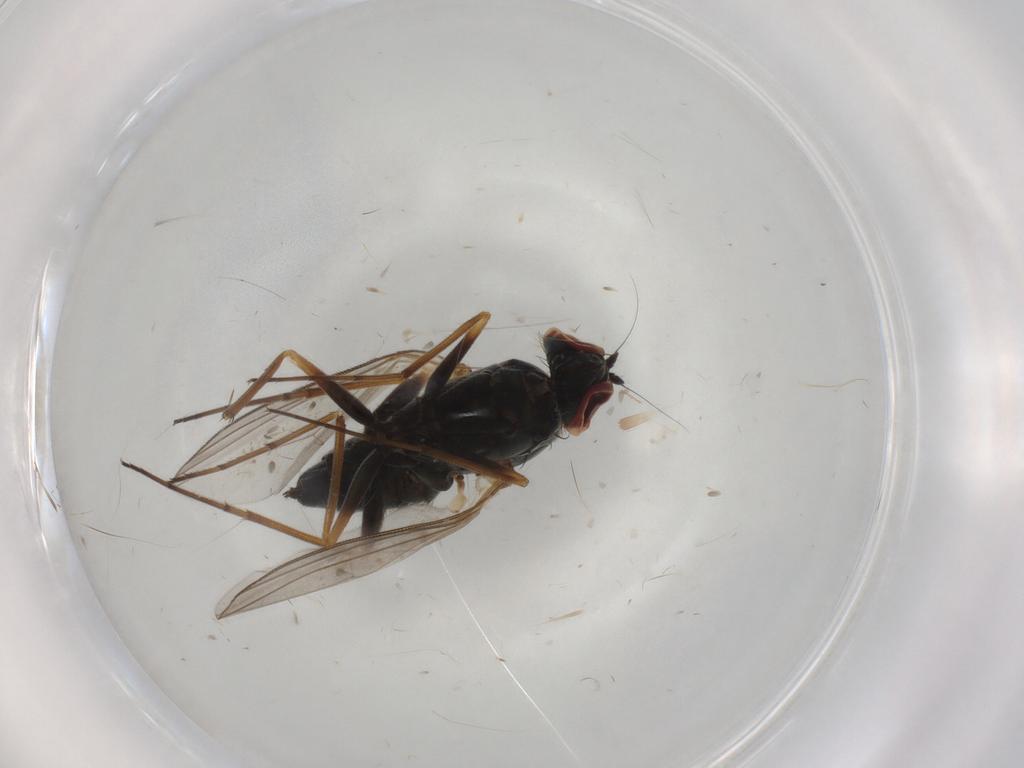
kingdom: Animalia
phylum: Arthropoda
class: Insecta
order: Diptera
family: Dolichopodidae
